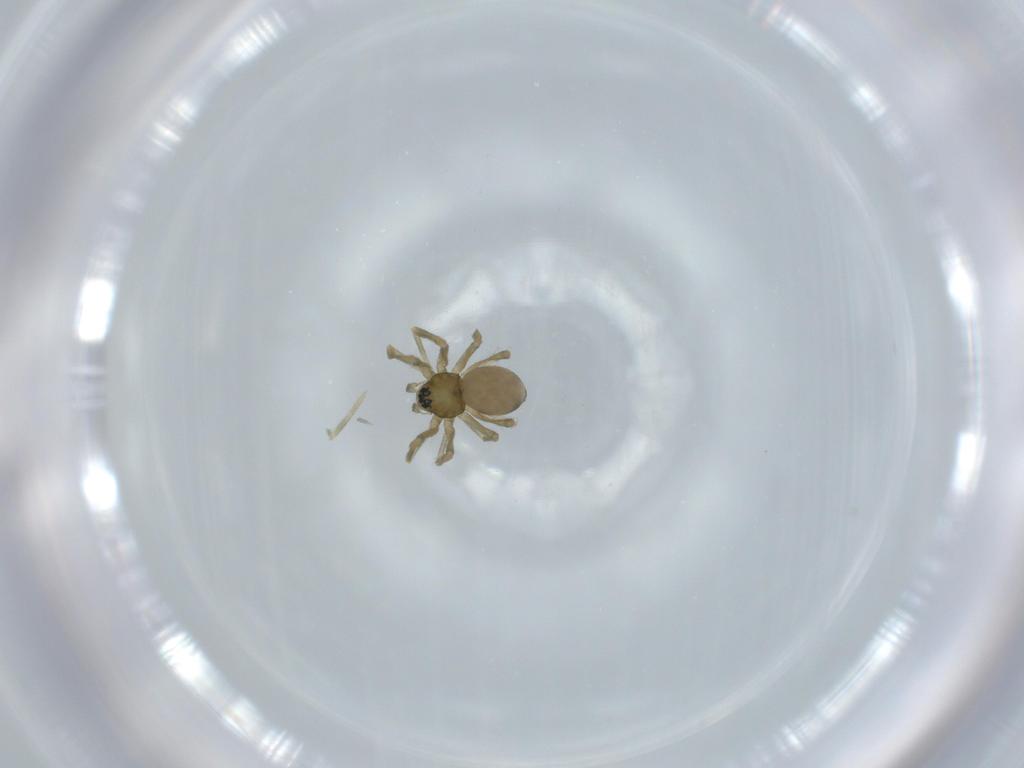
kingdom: Animalia
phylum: Arthropoda
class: Arachnida
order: Araneae
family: Linyphiidae
